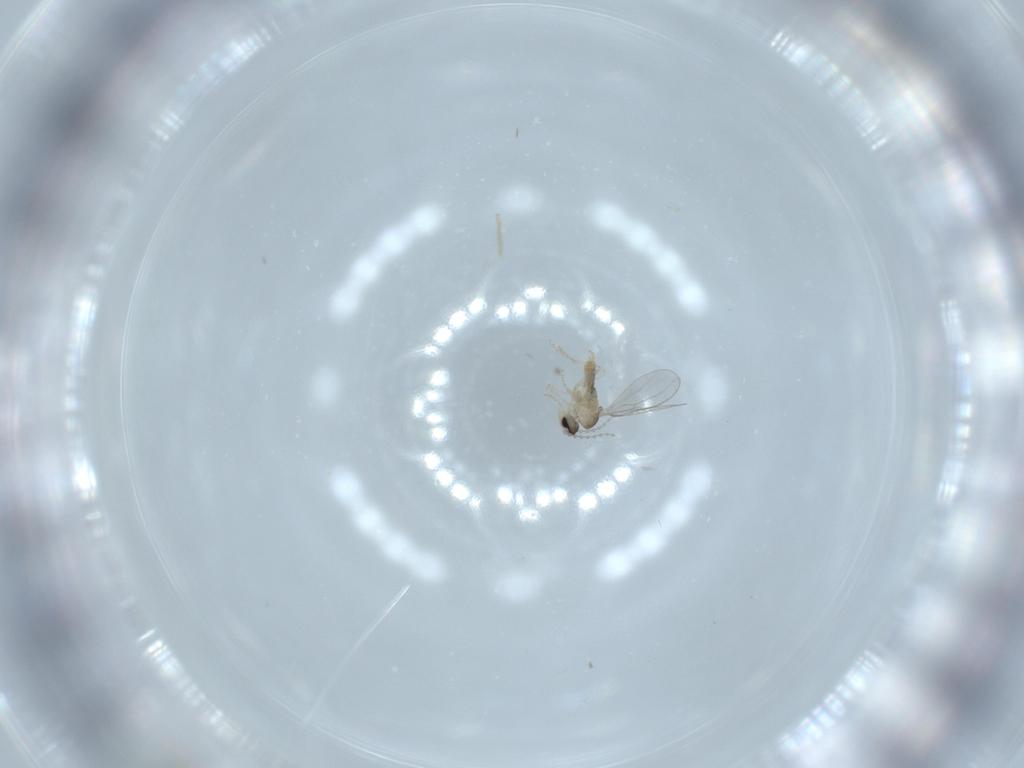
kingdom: Animalia
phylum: Arthropoda
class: Insecta
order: Diptera
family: Cecidomyiidae
